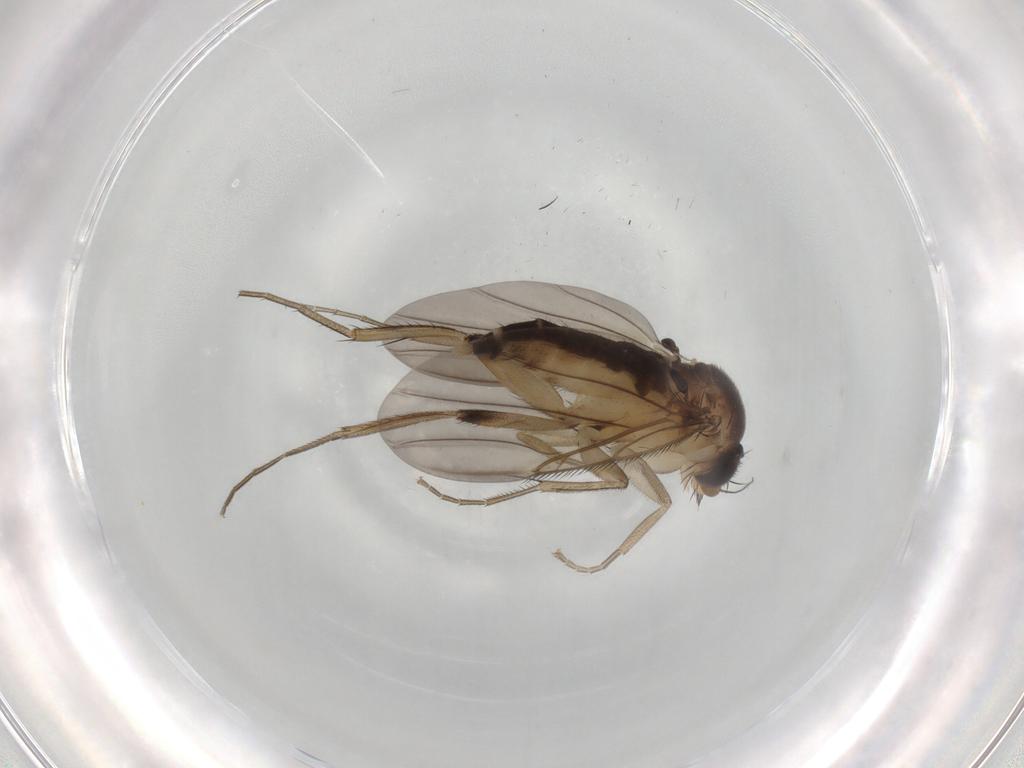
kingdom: Animalia
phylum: Arthropoda
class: Insecta
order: Diptera
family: Phoridae
